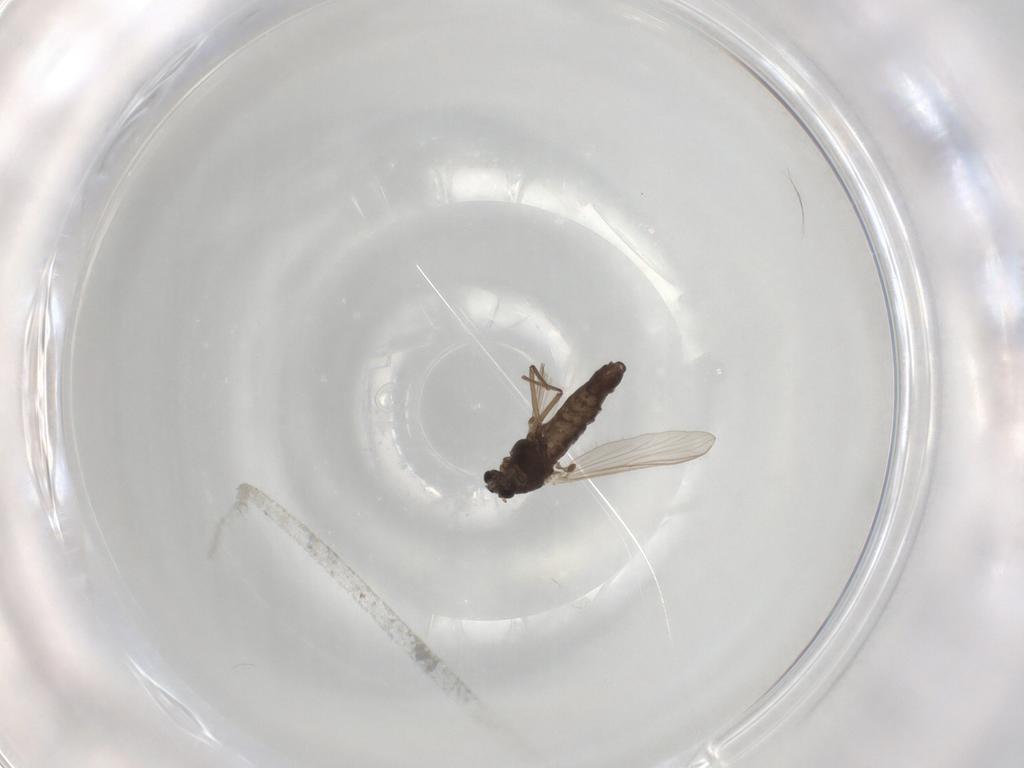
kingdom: Animalia
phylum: Arthropoda
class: Insecta
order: Diptera
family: Chironomidae
